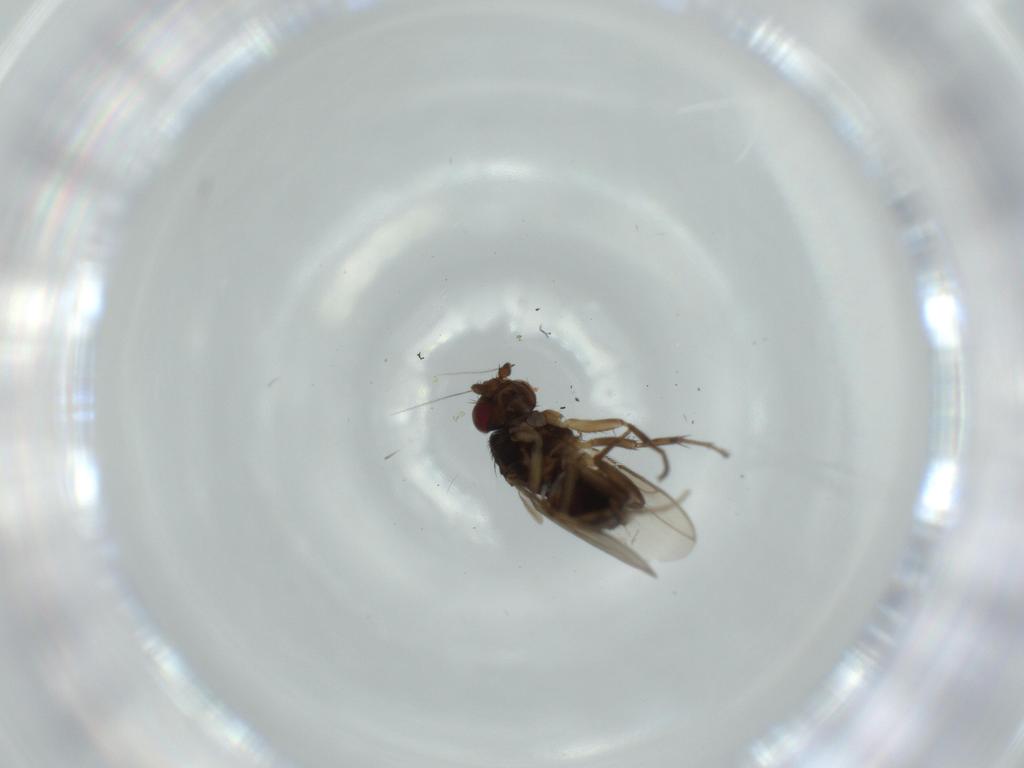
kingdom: Animalia
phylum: Arthropoda
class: Insecta
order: Diptera
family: Sphaeroceridae
